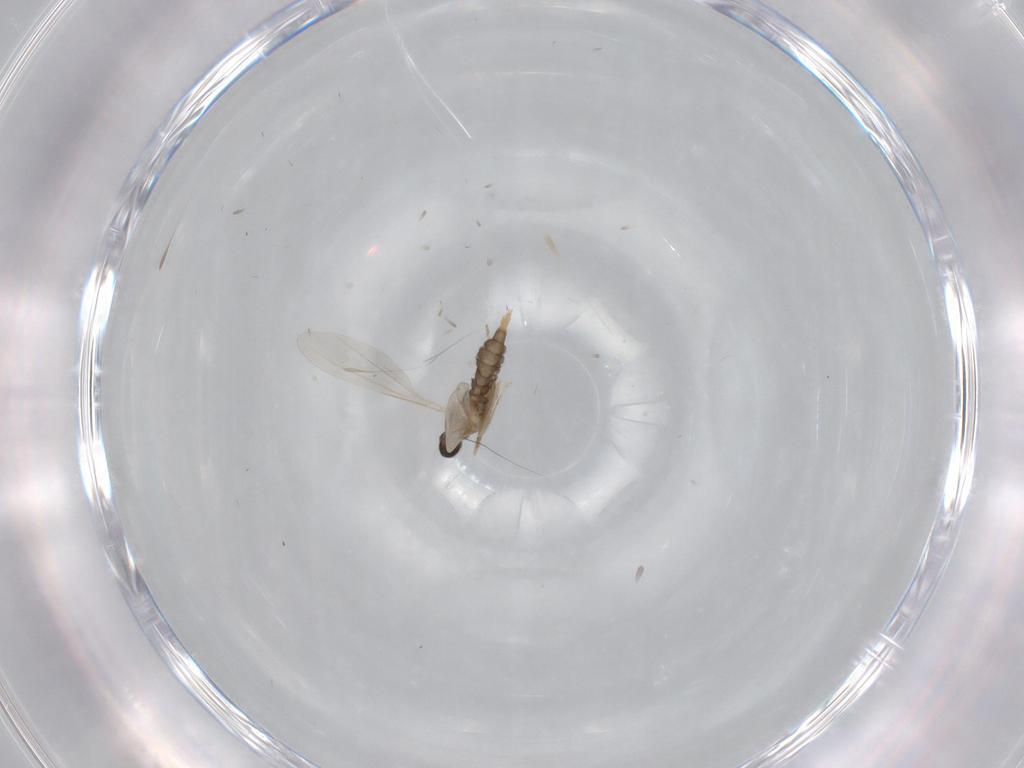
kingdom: Animalia
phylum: Arthropoda
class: Insecta
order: Diptera
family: Cecidomyiidae
